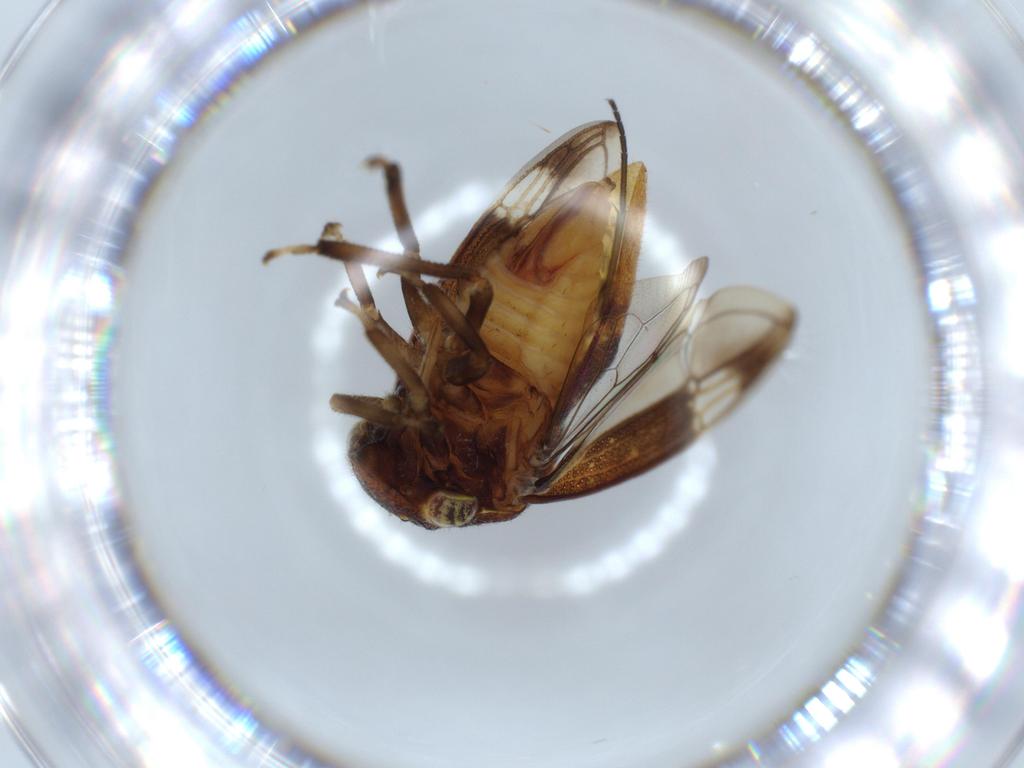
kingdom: Animalia
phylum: Arthropoda
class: Insecta
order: Hemiptera
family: Membracidae
